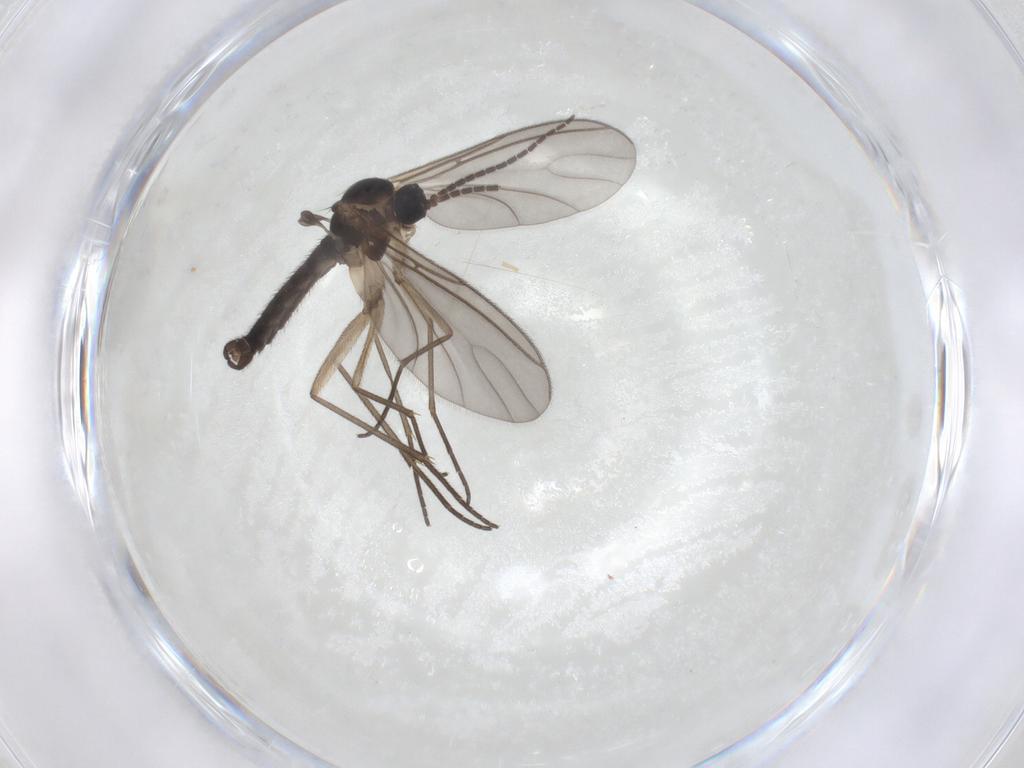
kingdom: Animalia
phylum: Arthropoda
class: Insecta
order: Diptera
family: Sciaridae
